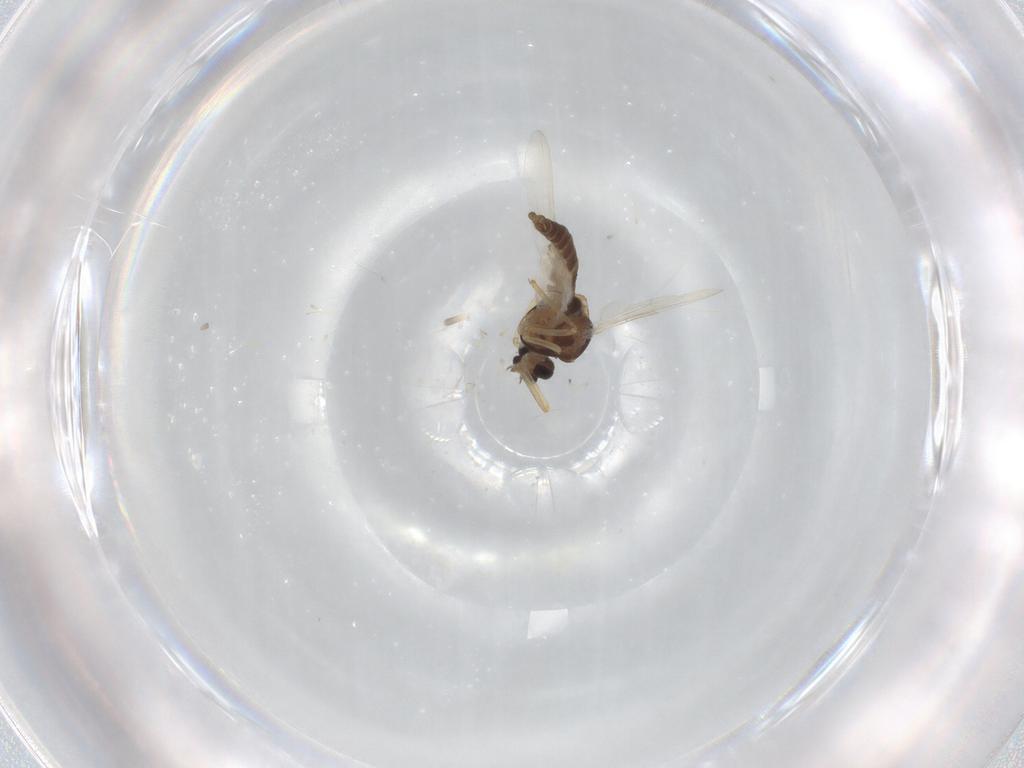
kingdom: Animalia
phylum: Arthropoda
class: Insecta
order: Diptera
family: Ceratopogonidae
